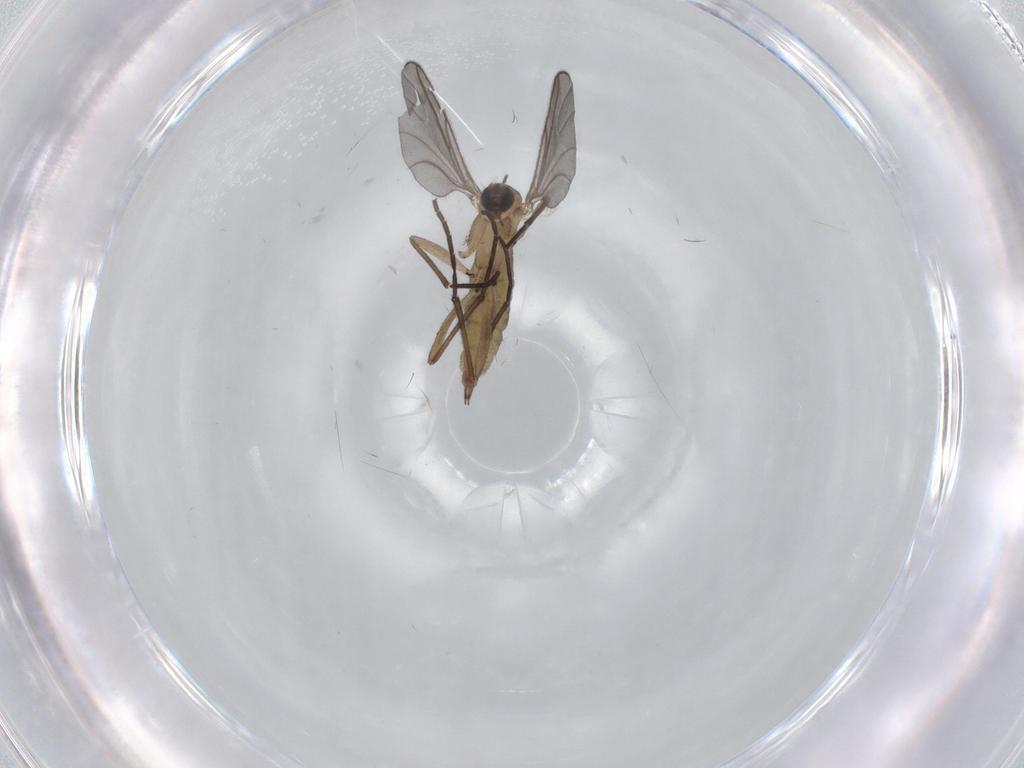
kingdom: Animalia
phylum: Arthropoda
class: Insecta
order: Diptera
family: Sciaridae
